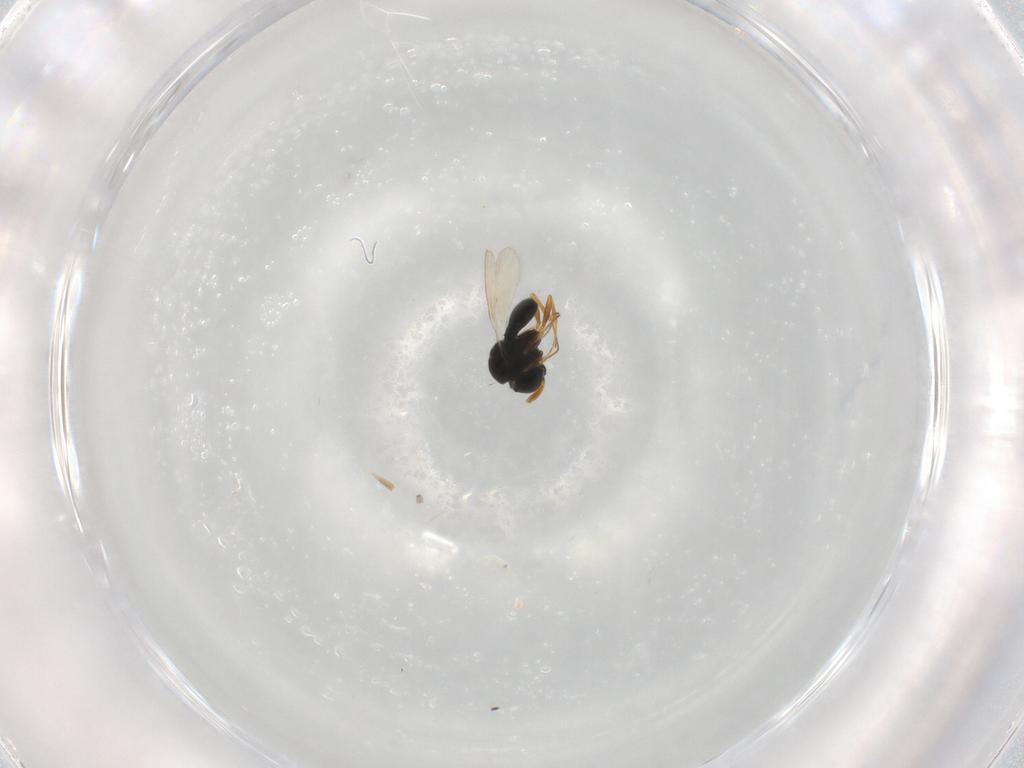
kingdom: Animalia
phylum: Arthropoda
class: Insecta
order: Hymenoptera
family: Scelionidae
